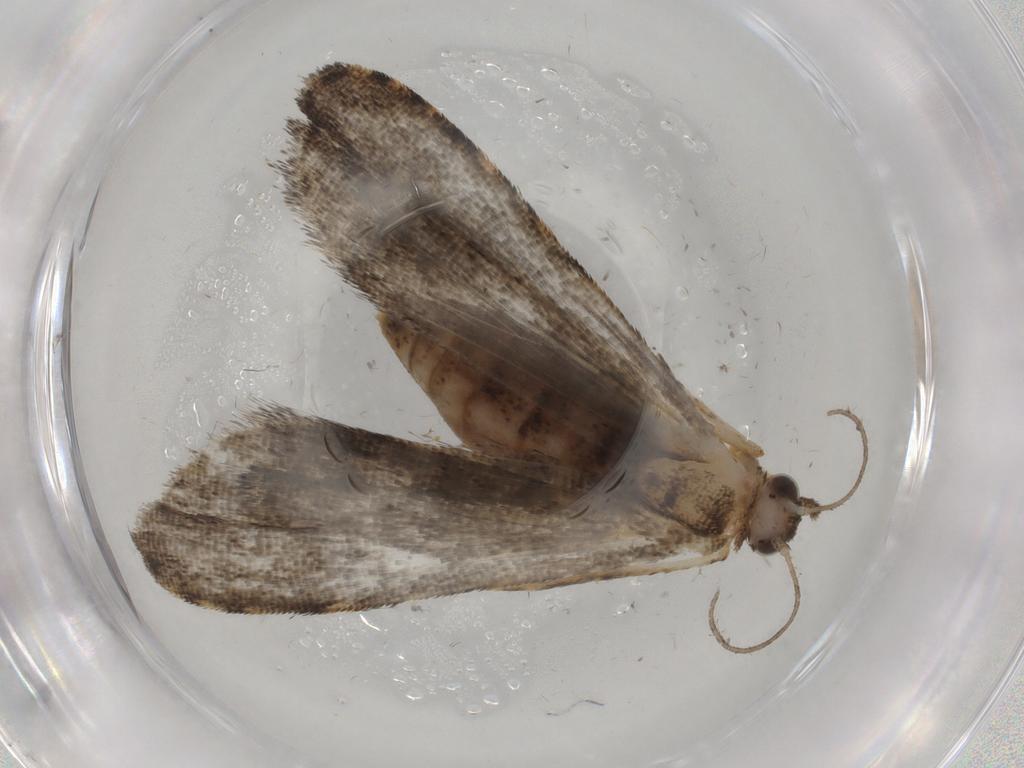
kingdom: Animalia
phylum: Arthropoda
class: Insecta
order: Lepidoptera
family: Erebidae
